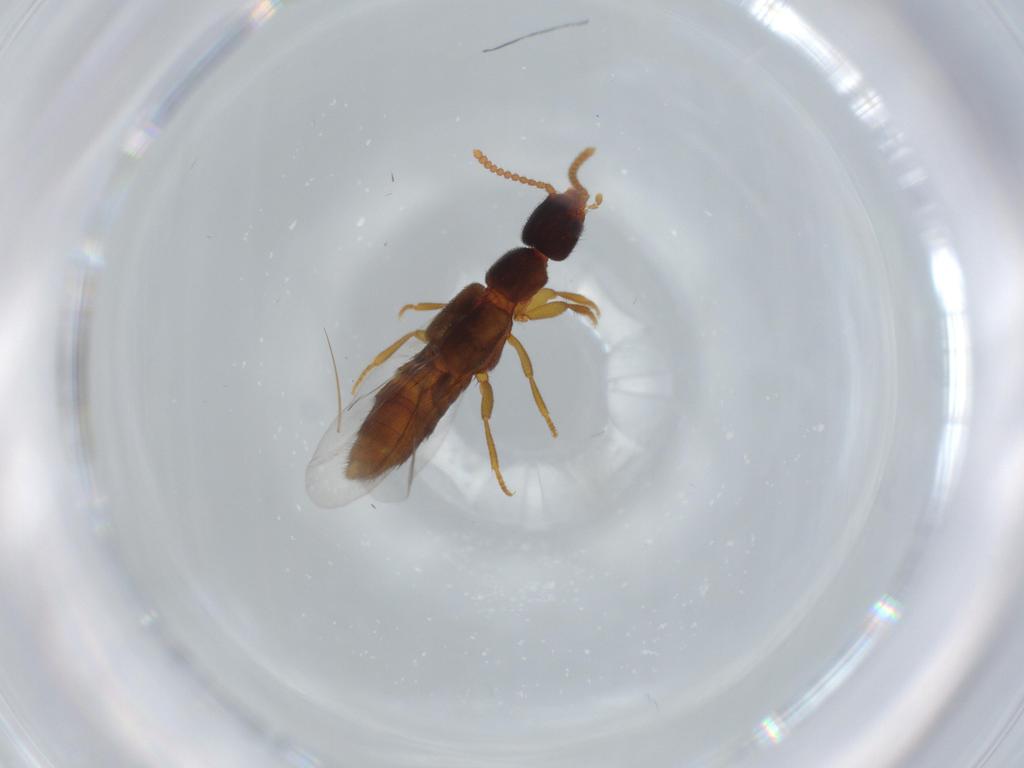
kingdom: Animalia
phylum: Arthropoda
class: Insecta
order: Coleoptera
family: Staphylinidae
